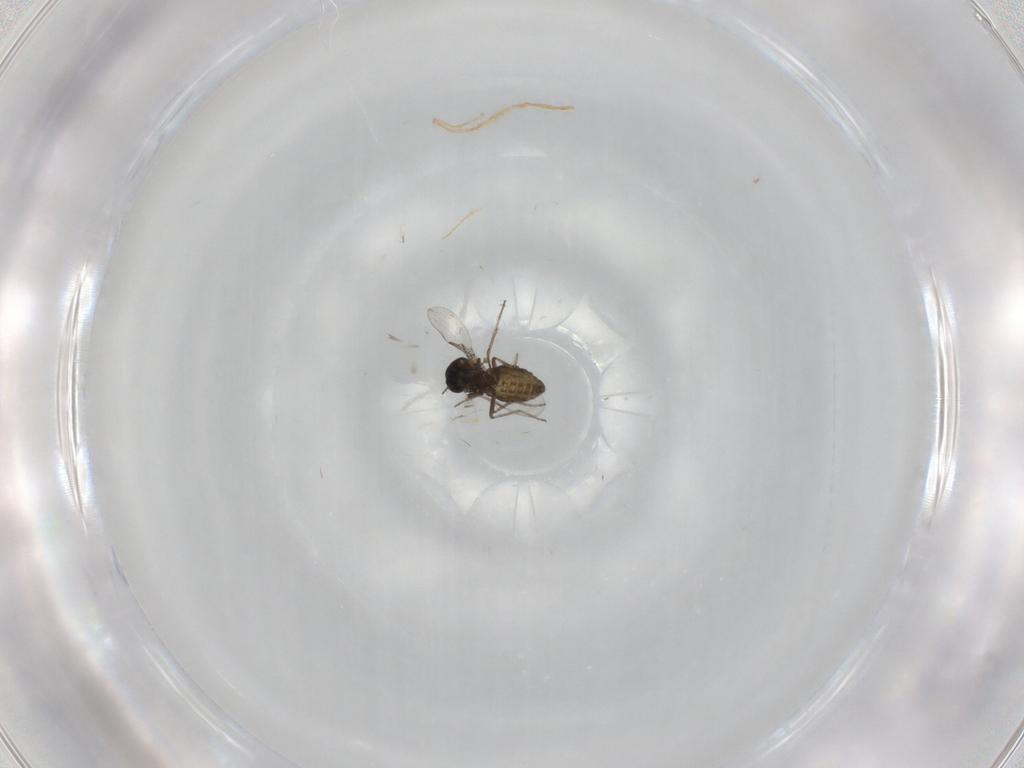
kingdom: Animalia
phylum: Arthropoda
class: Insecta
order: Diptera
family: Ceratopogonidae
